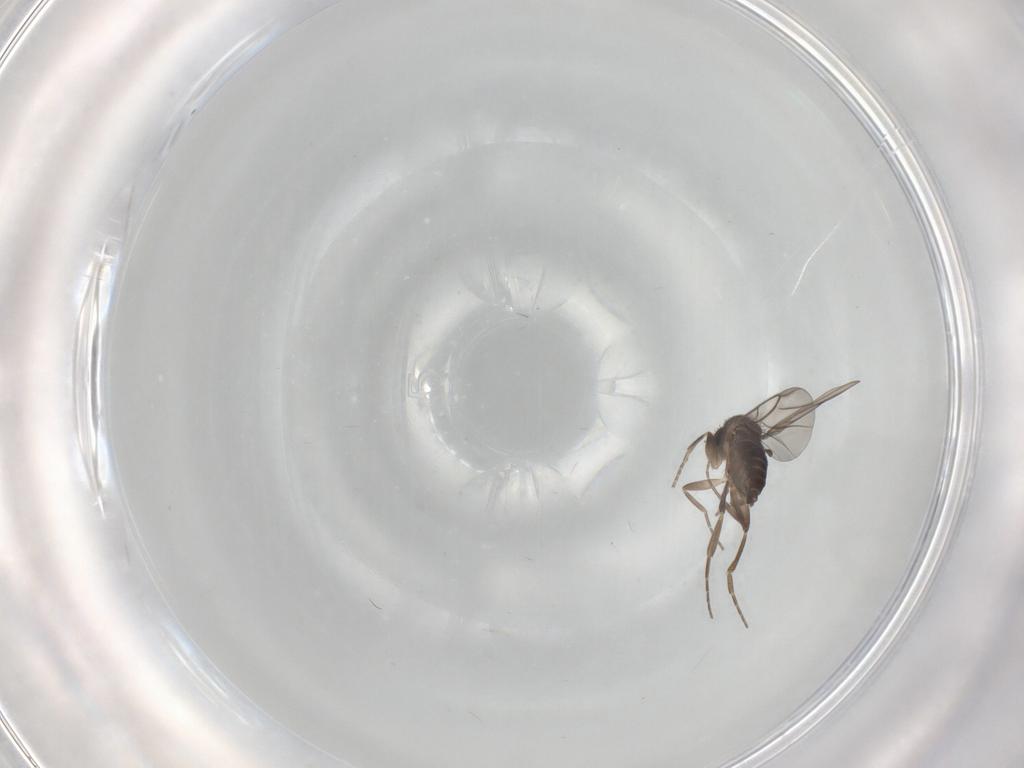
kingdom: Animalia
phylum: Arthropoda
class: Insecta
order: Diptera
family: Phoridae
